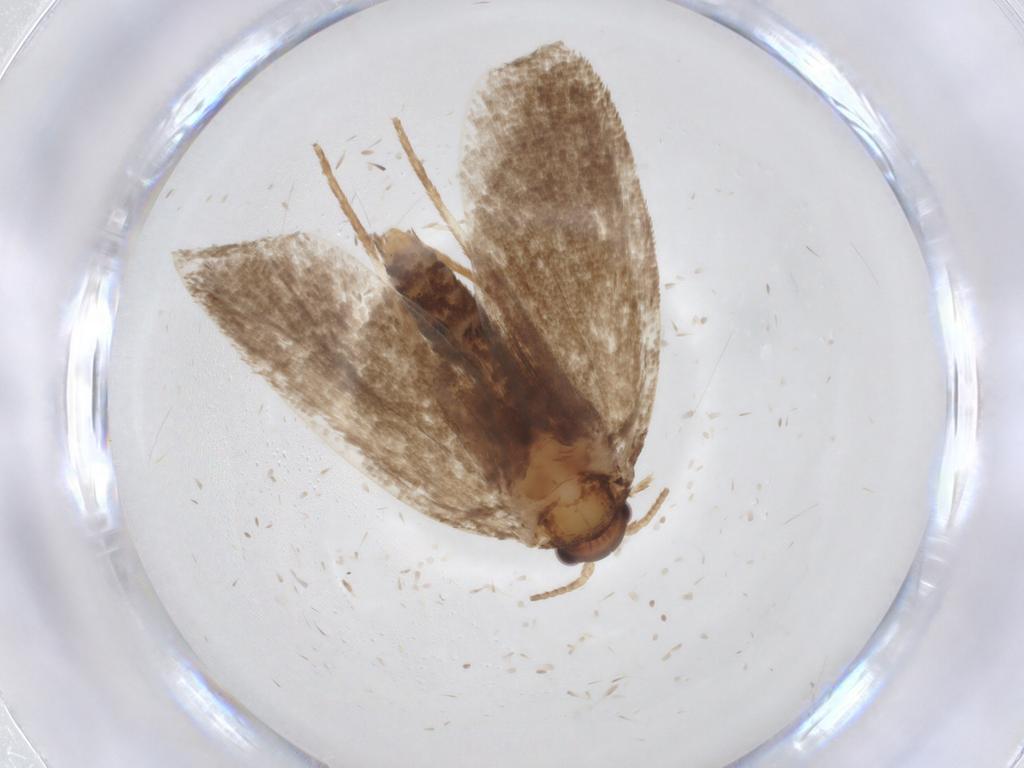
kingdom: Animalia
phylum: Arthropoda
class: Insecta
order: Lepidoptera
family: Tineidae
